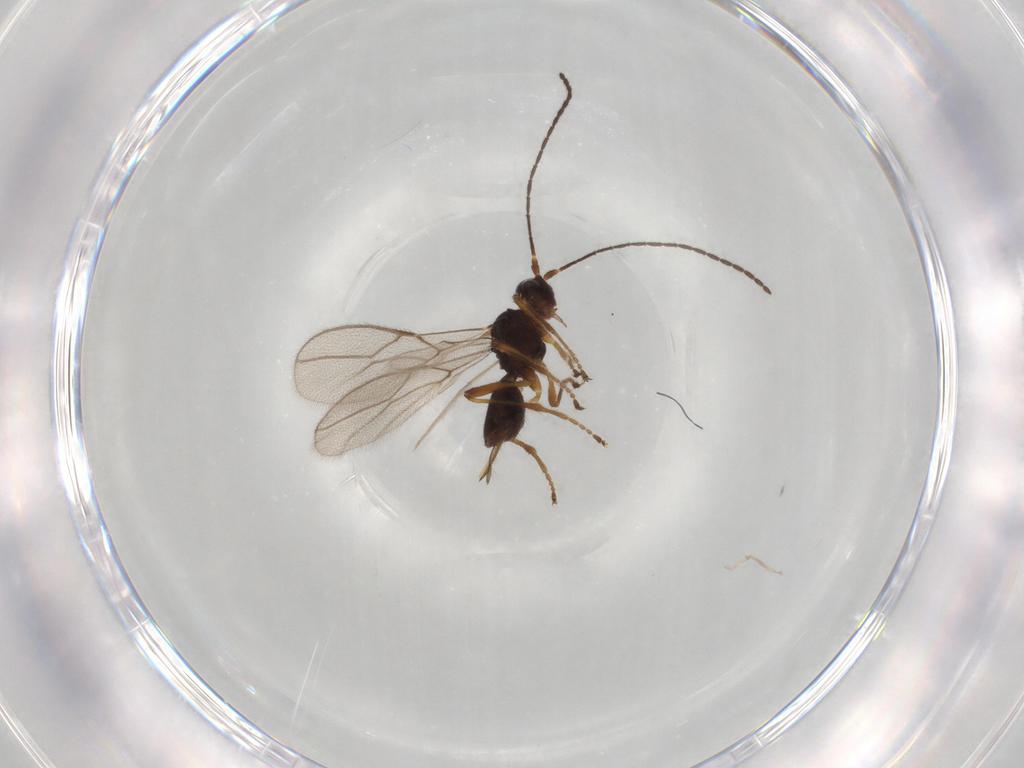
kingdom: Animalia
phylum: Arthropoda
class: Insecta
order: Hymenoptera
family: Braconidae
